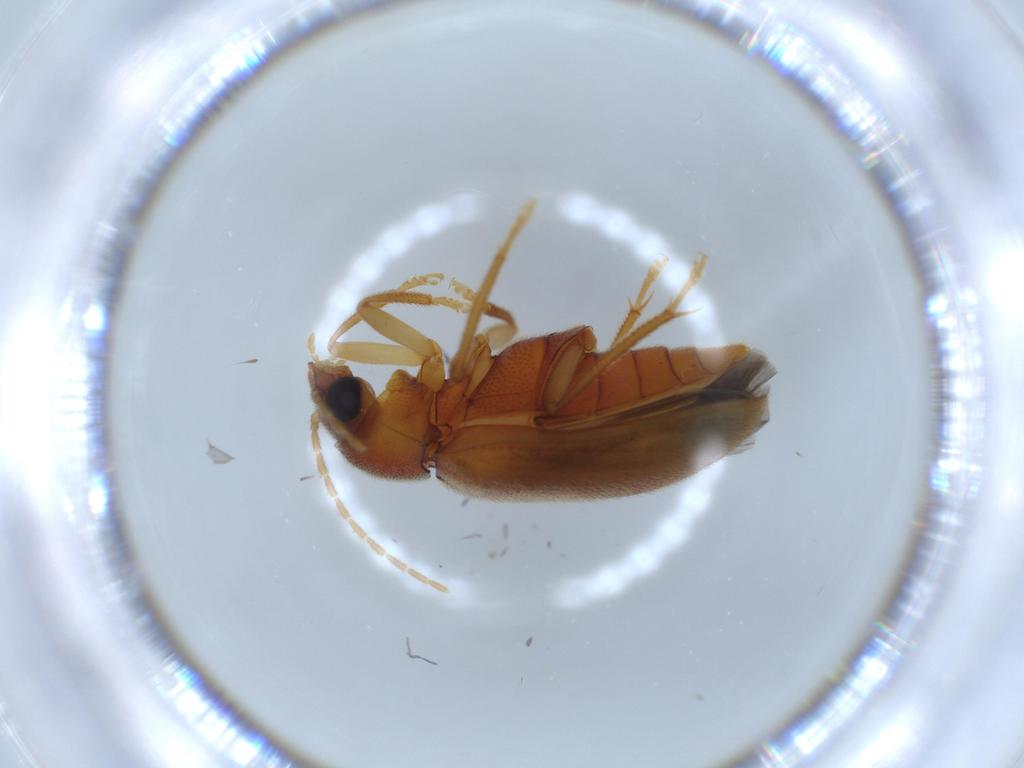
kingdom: Animalia
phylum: Arthropoda
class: Insecta
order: Coleoptera
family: Ptilodactylidae
